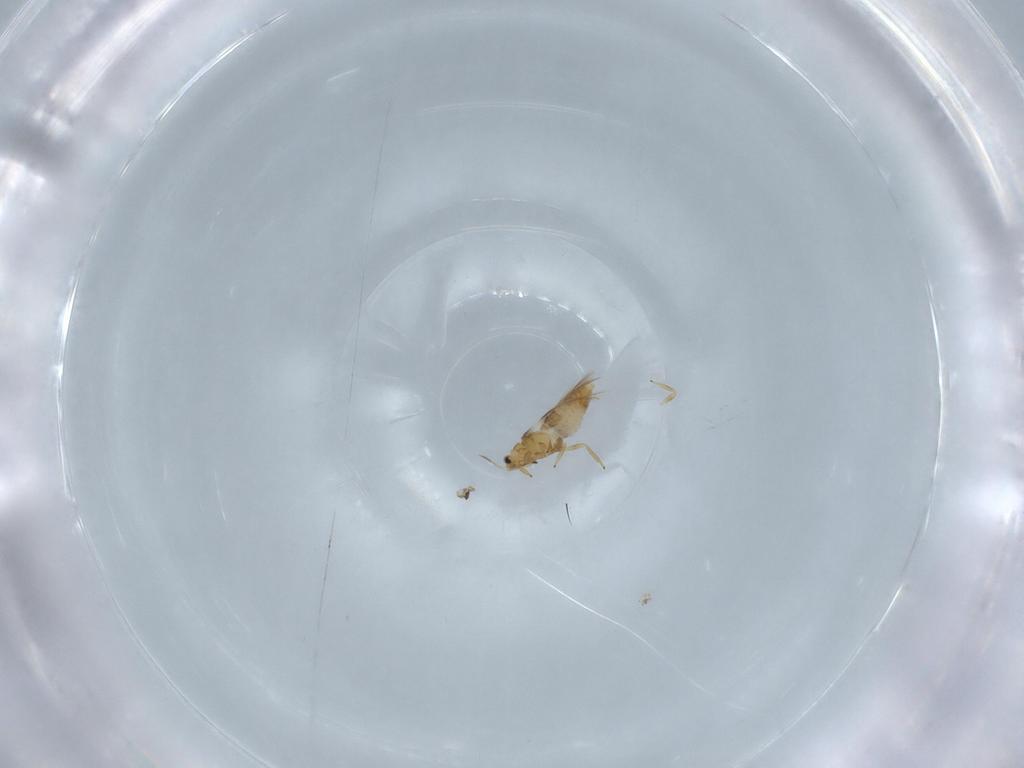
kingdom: Animalia
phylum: Arthropoda
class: Insecta
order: Thysanoptera
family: Thripidae
